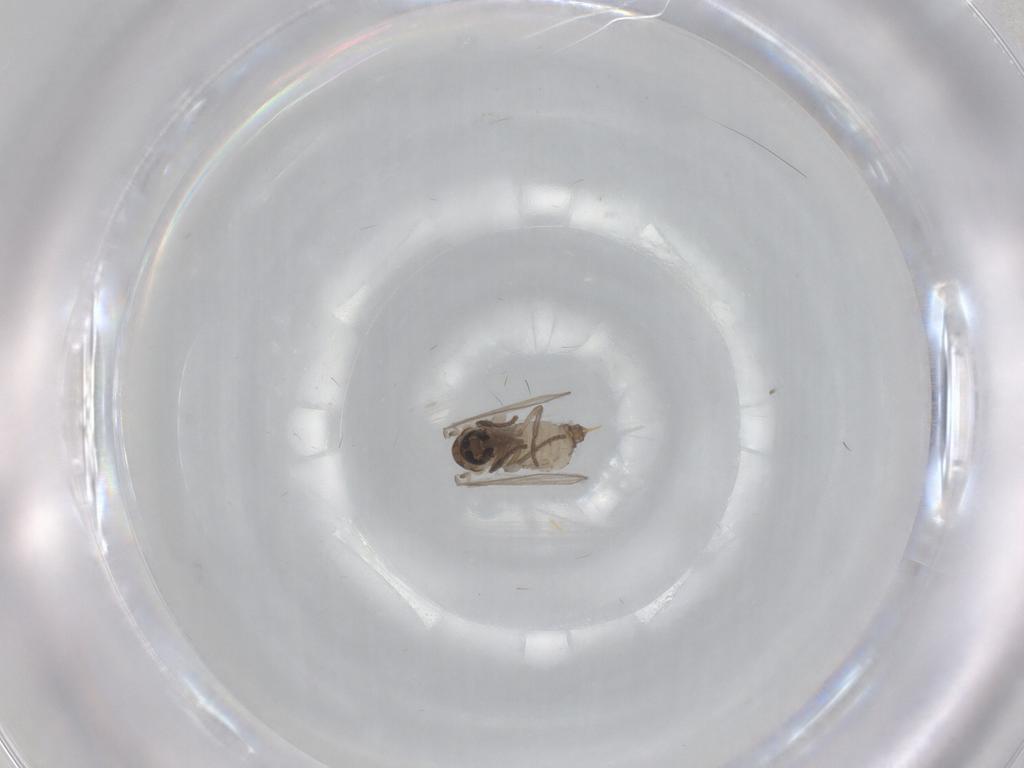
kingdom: Animalia
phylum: Arthropoda
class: Insecta
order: Diptera
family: Psychodidae
